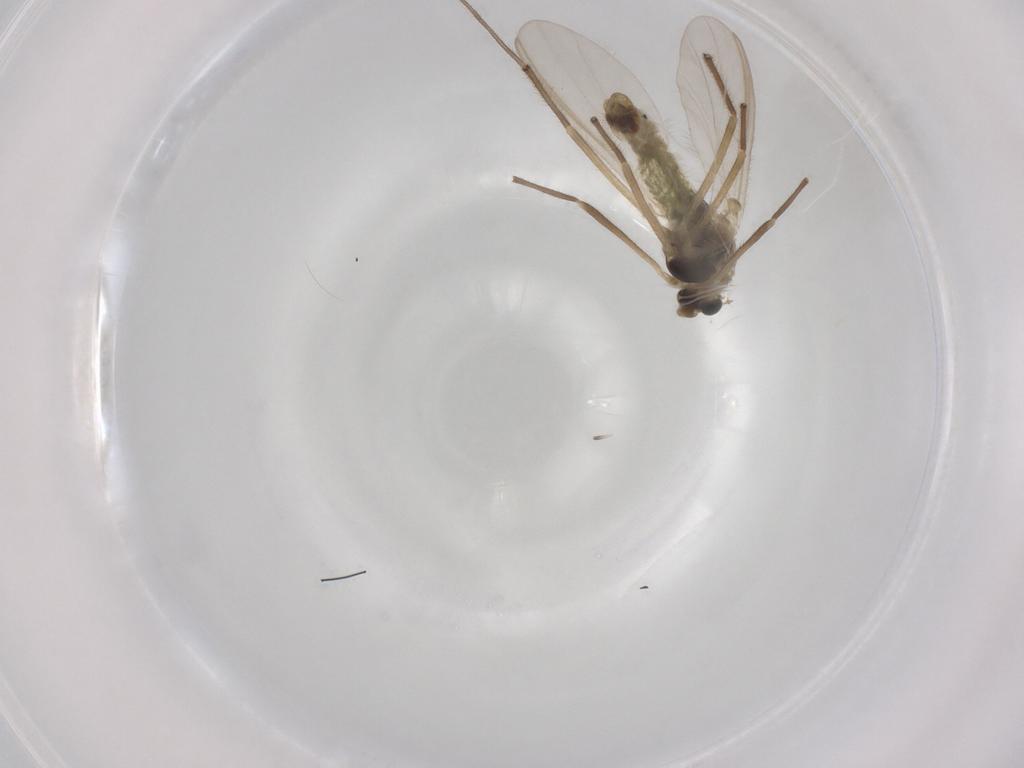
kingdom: Animalia
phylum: Arthropoda
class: Insecta
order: Diptera
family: Chironomidae
